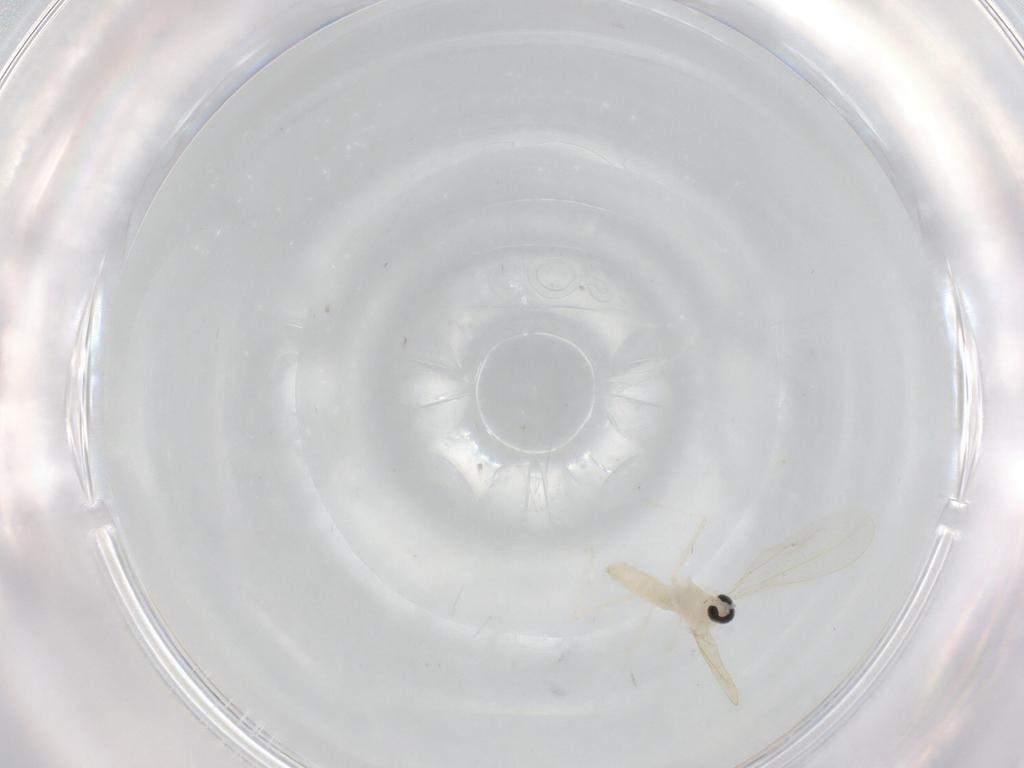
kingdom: Animalia
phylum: Arthropoda
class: Insecta
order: Diptera
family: Cecidomyiidae
